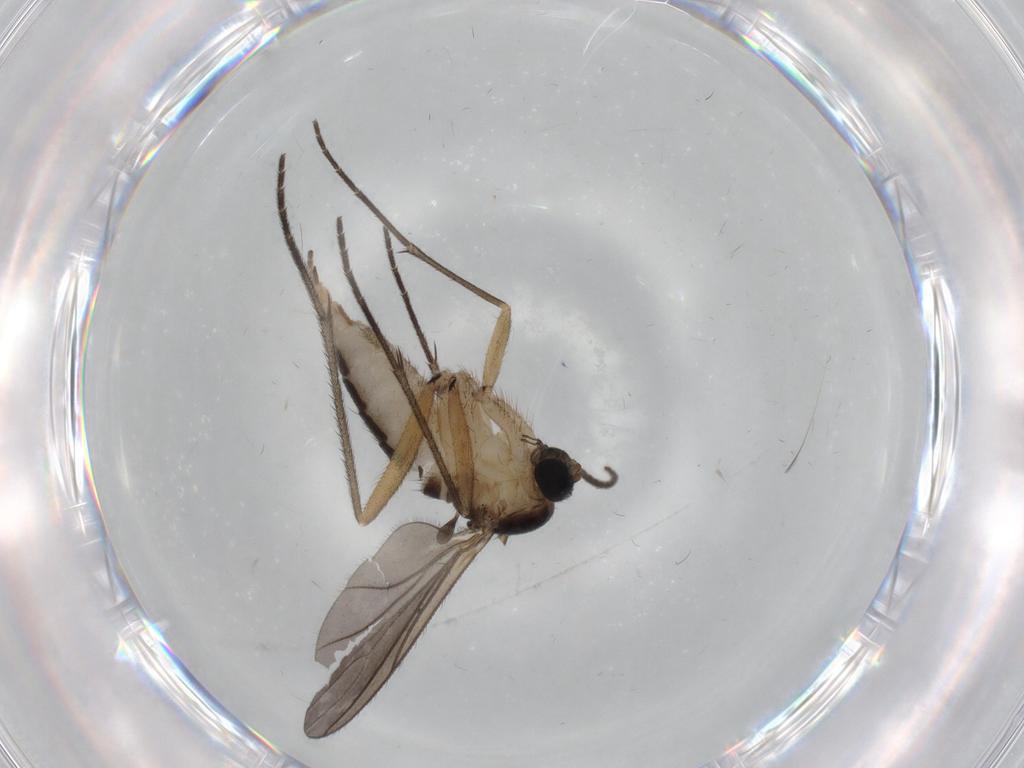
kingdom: Animalia
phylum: Arthropoda
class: Insecta
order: Diptera
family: Sciaridae
